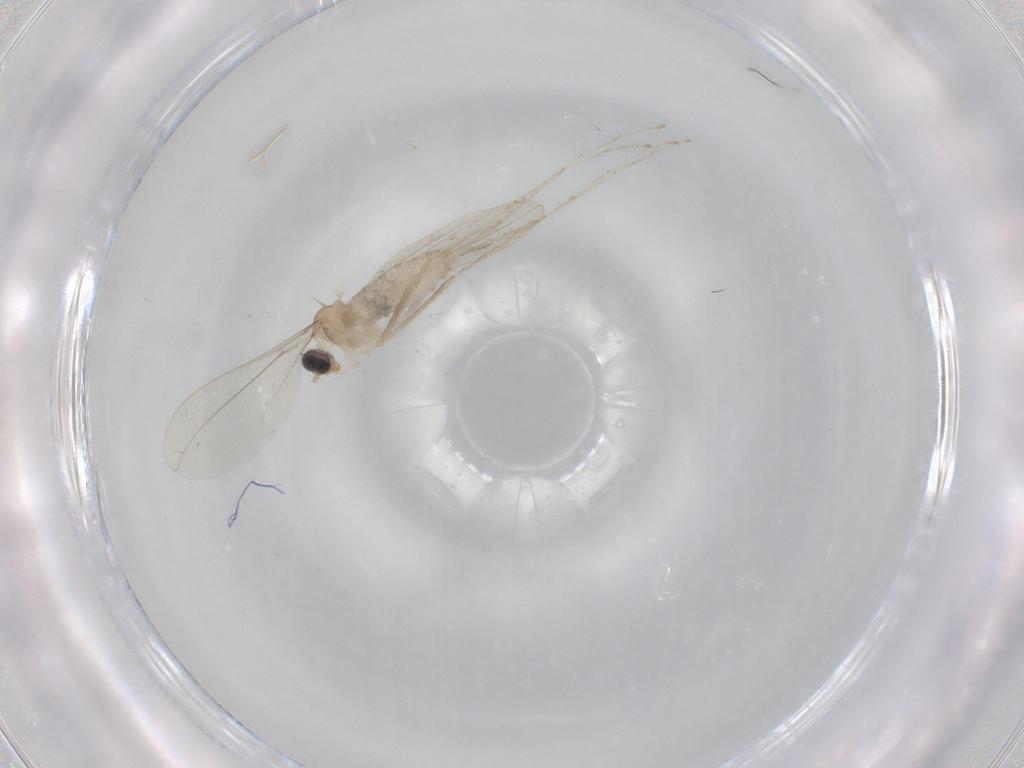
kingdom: Animalia
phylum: Arthropoda
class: Insecta
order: Diptera
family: Cecidomyiidae
